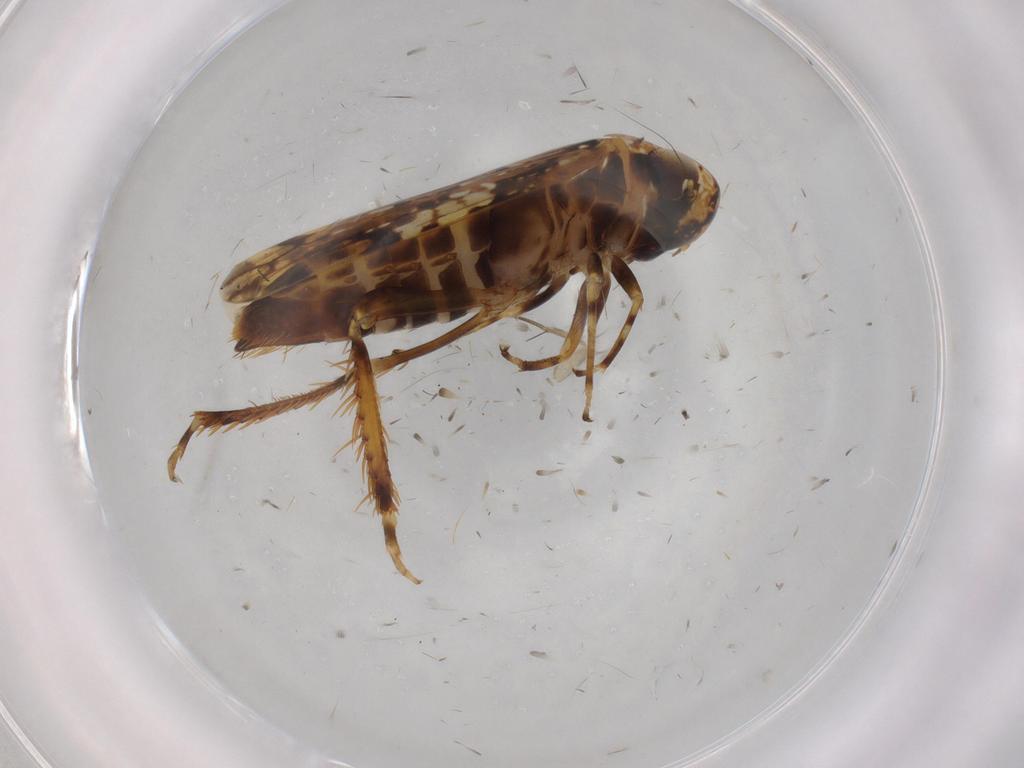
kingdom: Animalia
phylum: Arthropoda
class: Insecta
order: Hemiptera
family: Cicadellidae
